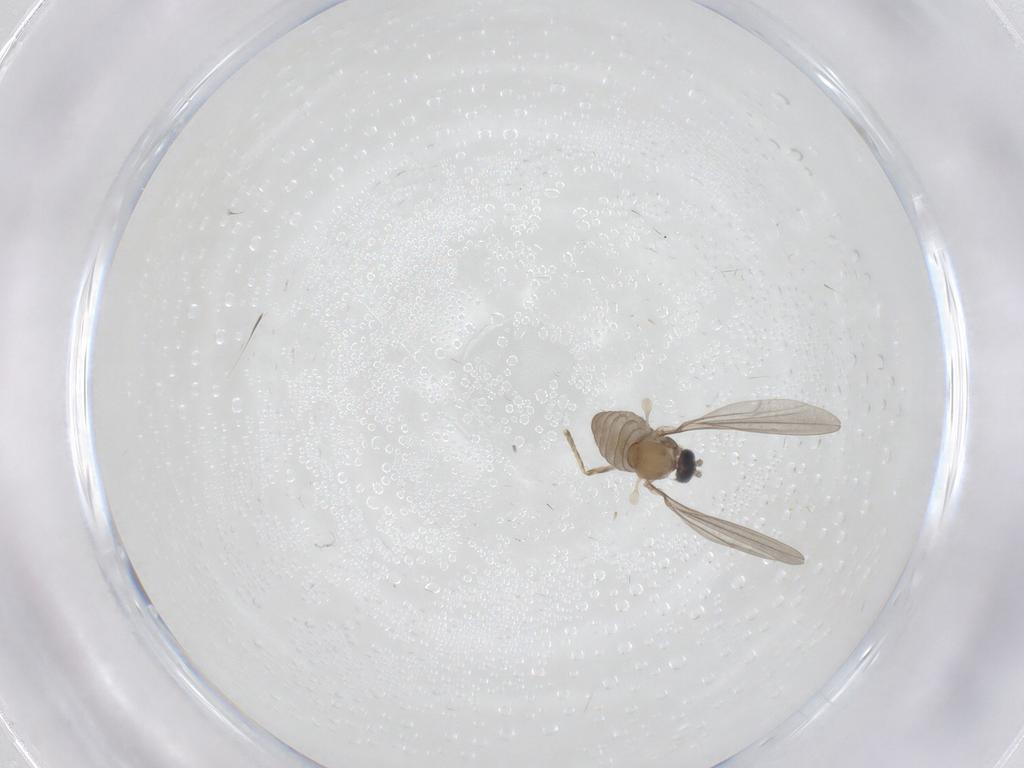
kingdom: Animalia
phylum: Arthropoda
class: Insecta
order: Diptera
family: Cecidomyiidae
